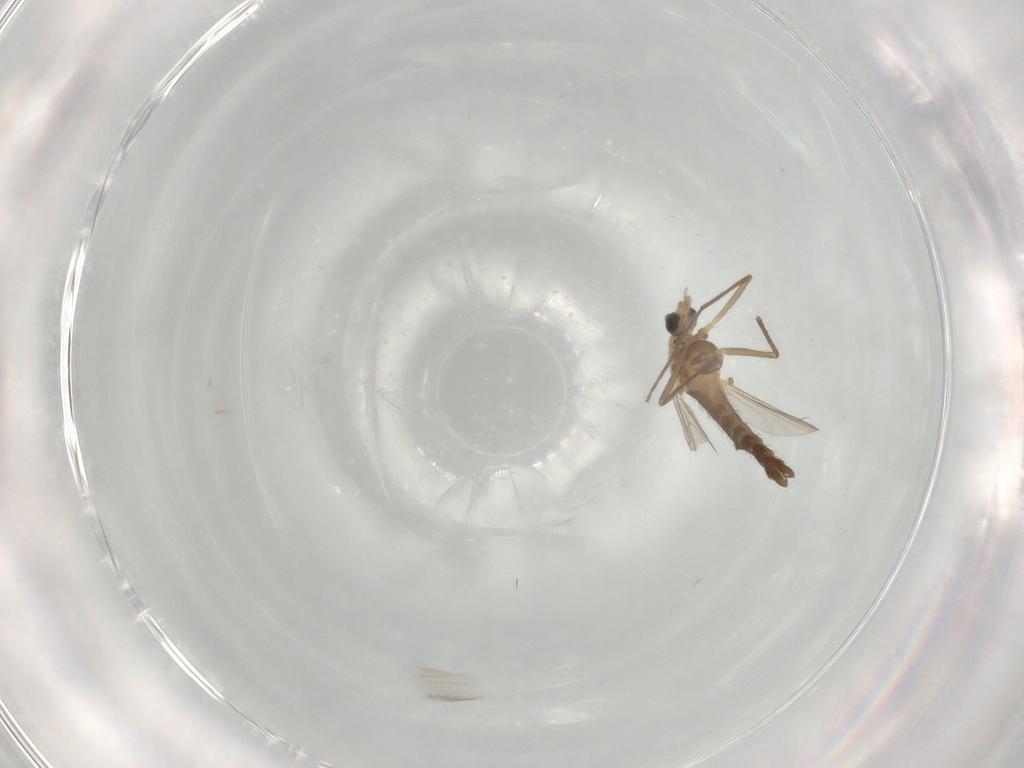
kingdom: Animalia
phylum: Arthropoda
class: Insecta
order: Diptera
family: Chironomidae
